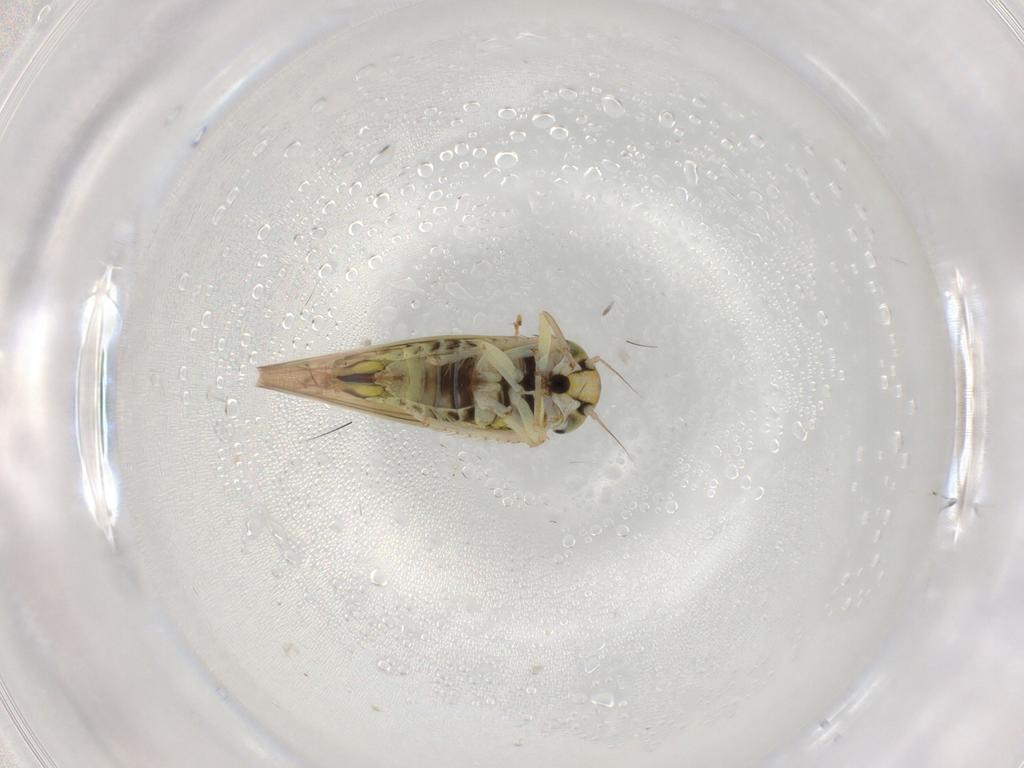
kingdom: Animalia
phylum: Arthropoda
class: Insecta
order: Hemiptera
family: Cicadellidae
